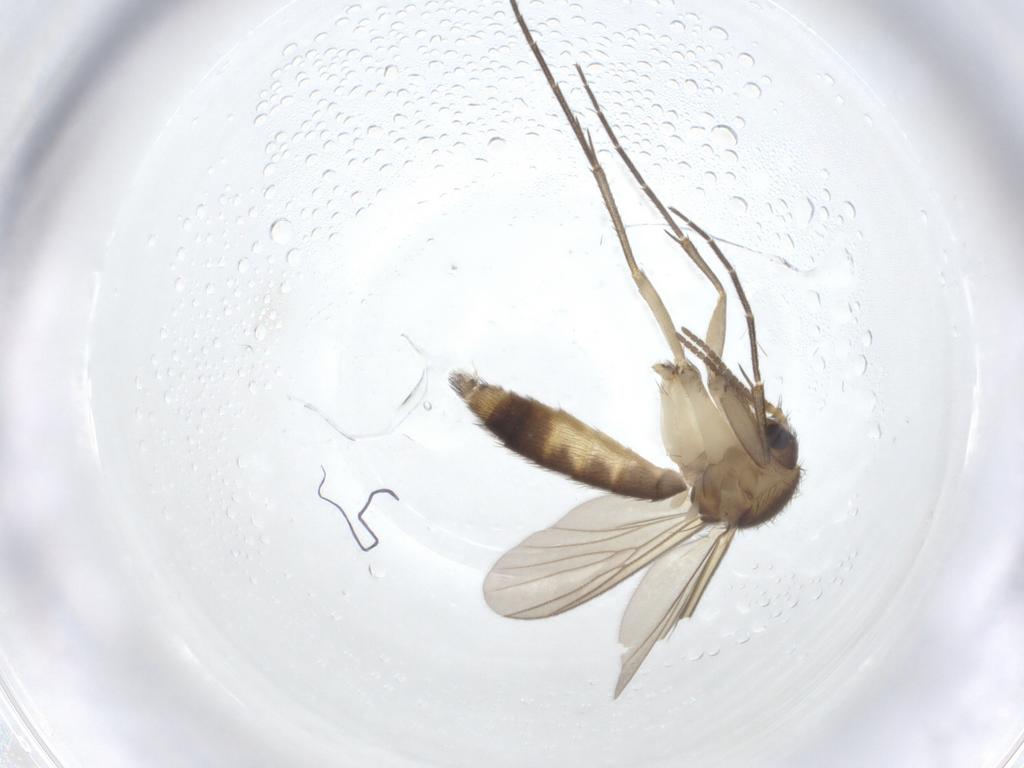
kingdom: Animalia
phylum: Arthropoda
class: Insecta
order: Diptera
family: Mycetophilidae
